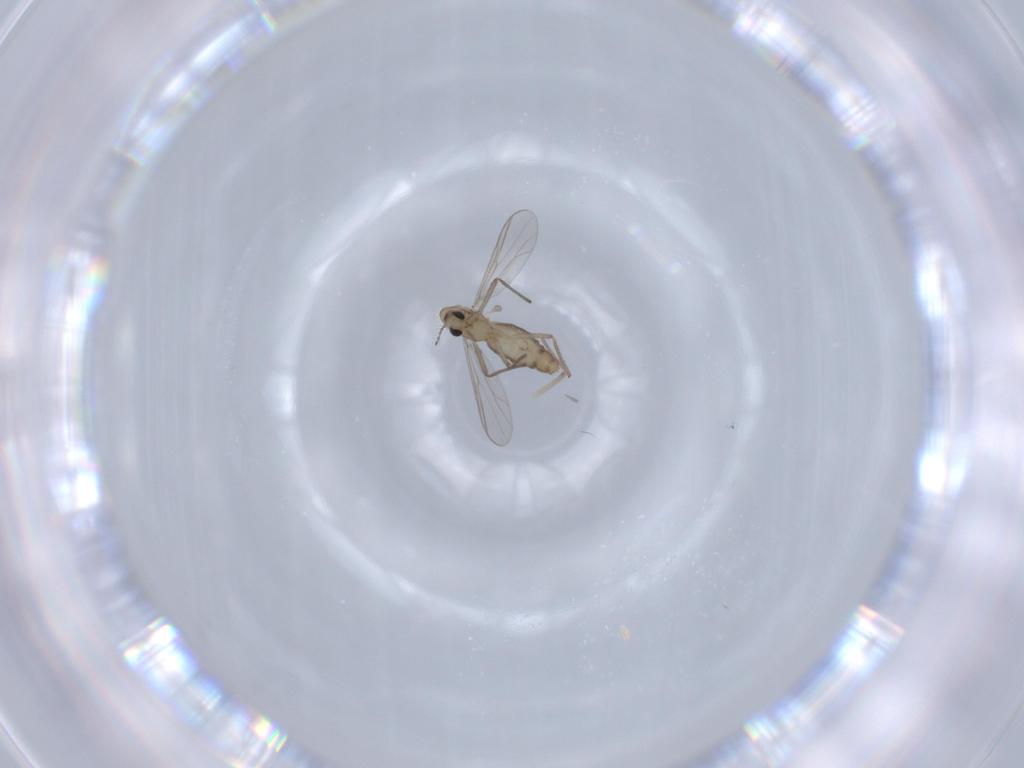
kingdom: Animalia
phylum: Arthropoda
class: Insecta
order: Diptera
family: Chironomidae
